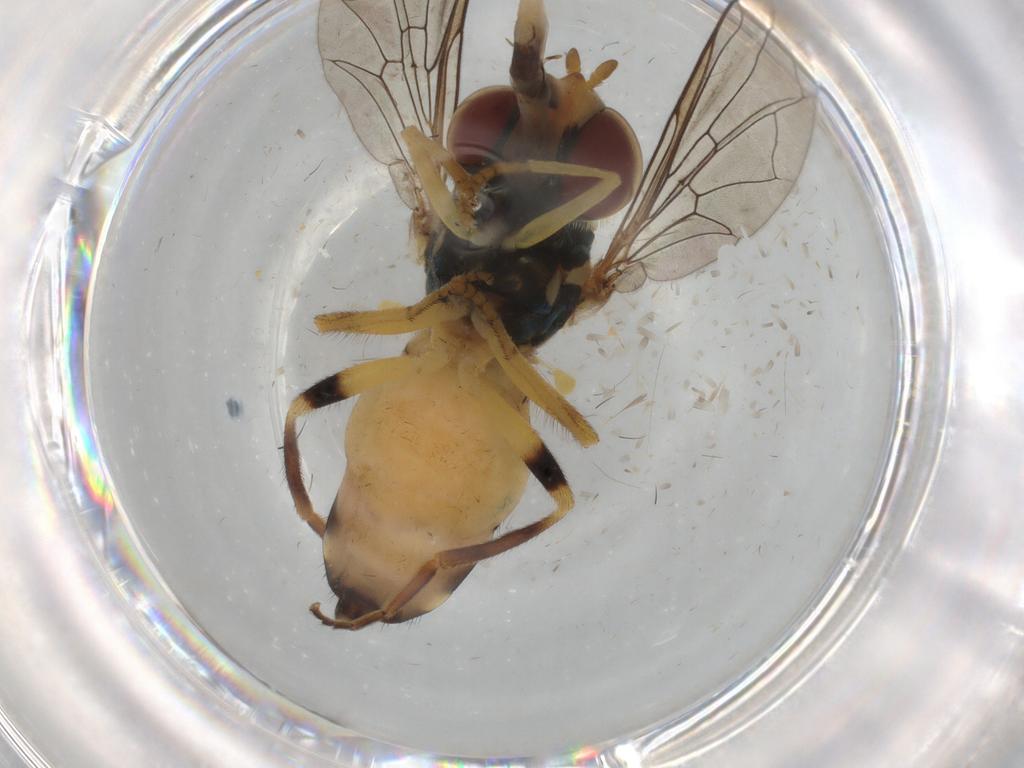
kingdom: Animalia
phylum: Arthropoda
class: Insecta
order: Diptera
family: Syrphidae
